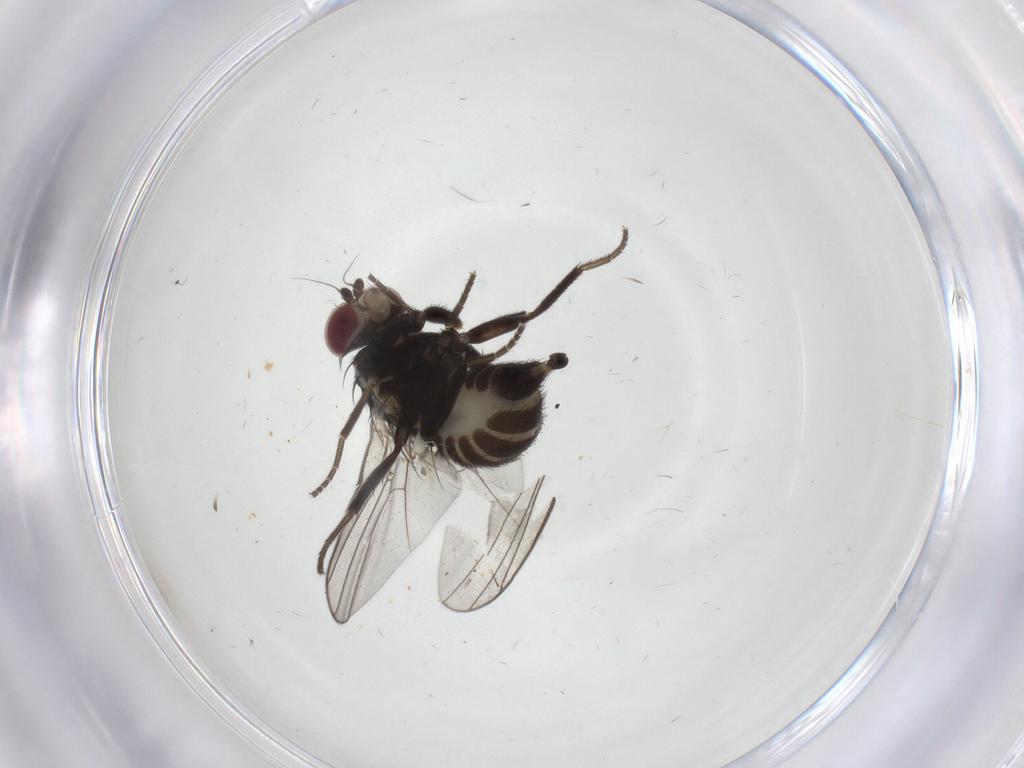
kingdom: Animalia
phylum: Arthropoda
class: Insecta
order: Diptera
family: Agromyzidae
